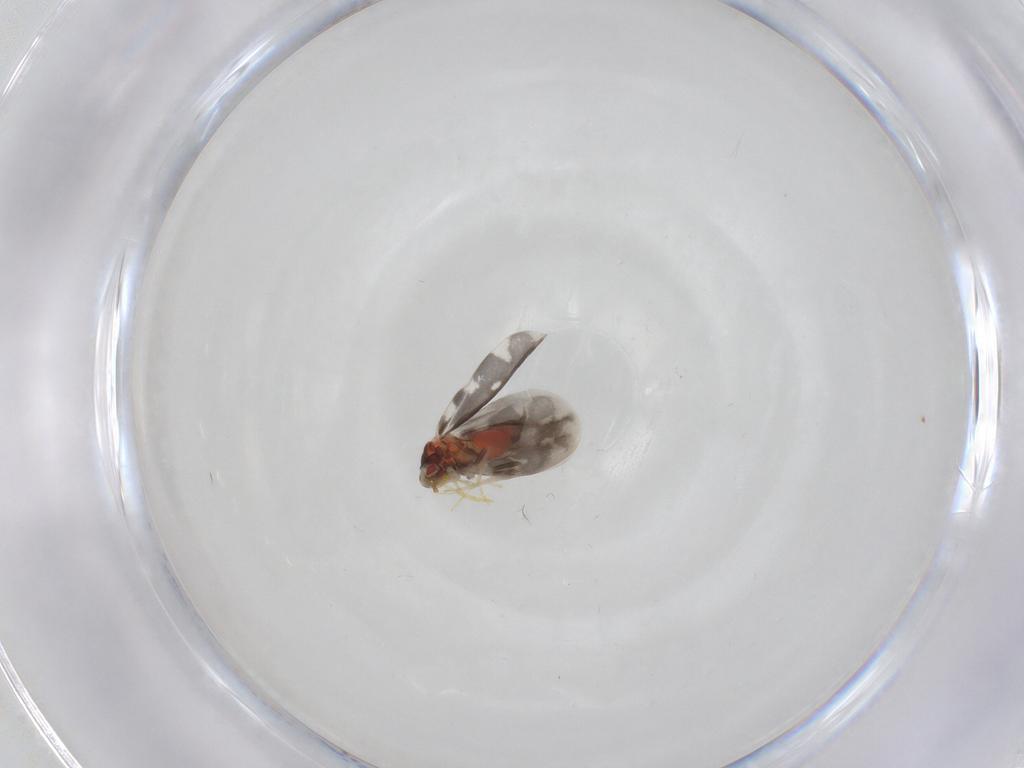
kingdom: Animalia
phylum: Arthropoda
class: Insecta
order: Hemiptera
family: Aleyrodidae
